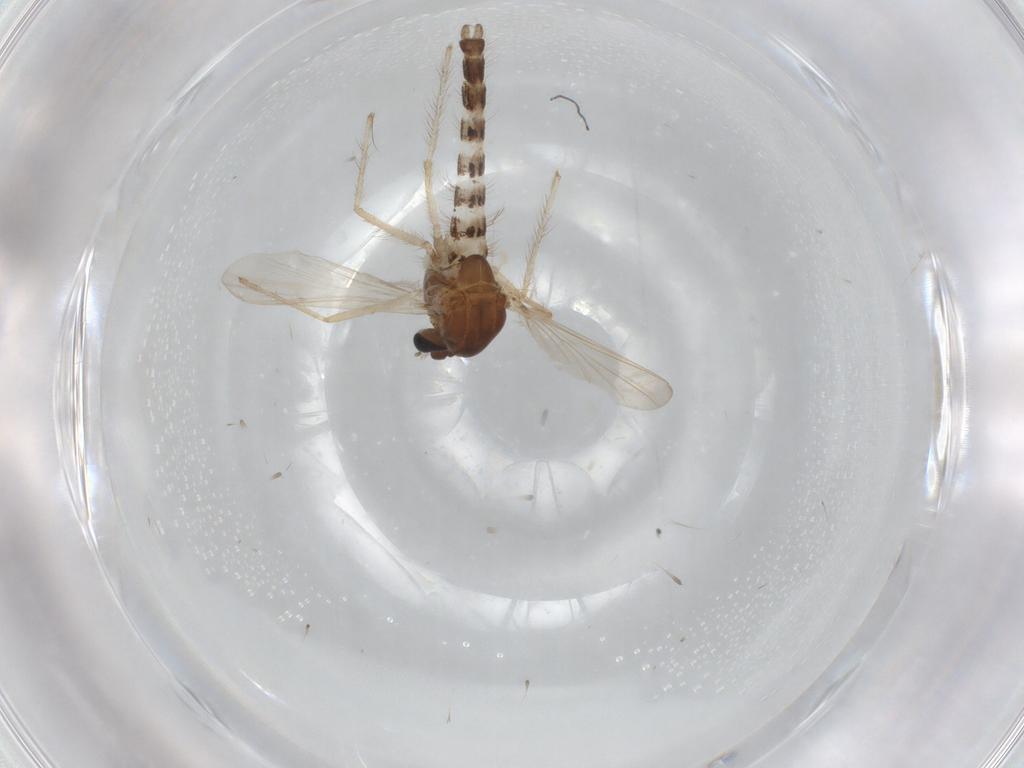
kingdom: Animalia
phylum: Arthropoda
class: Insecta
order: Diptera
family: Chironomidae
